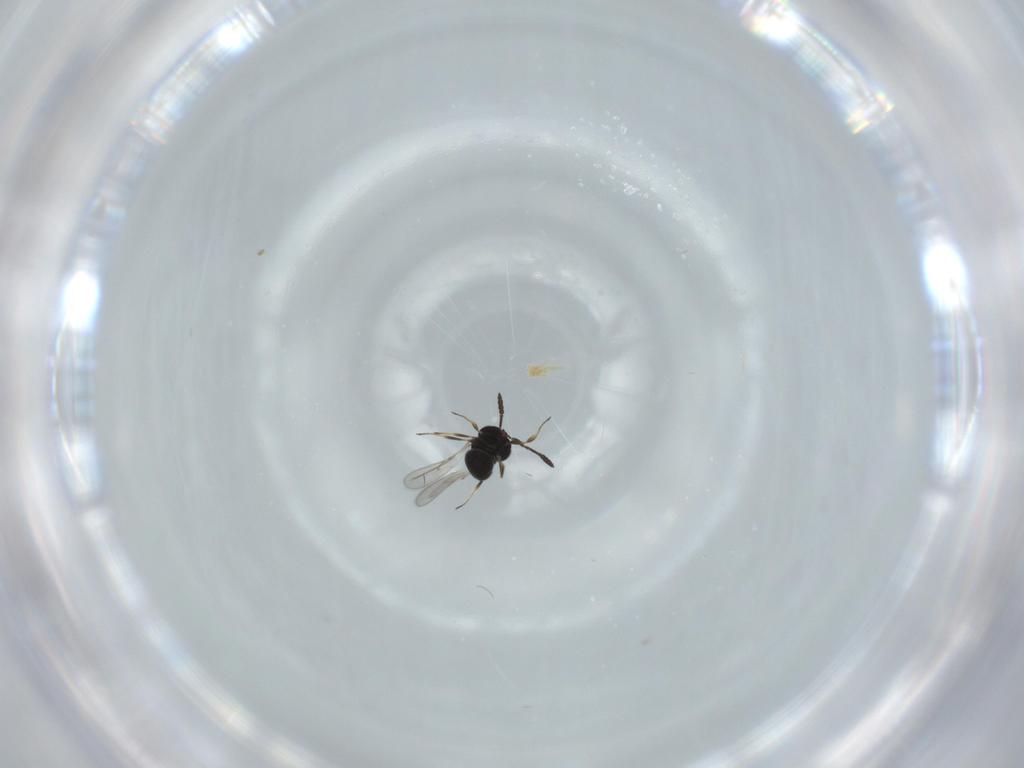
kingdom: Animalia
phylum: Arthropoda
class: Insecta
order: Hymenoptera
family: Scelionidae
